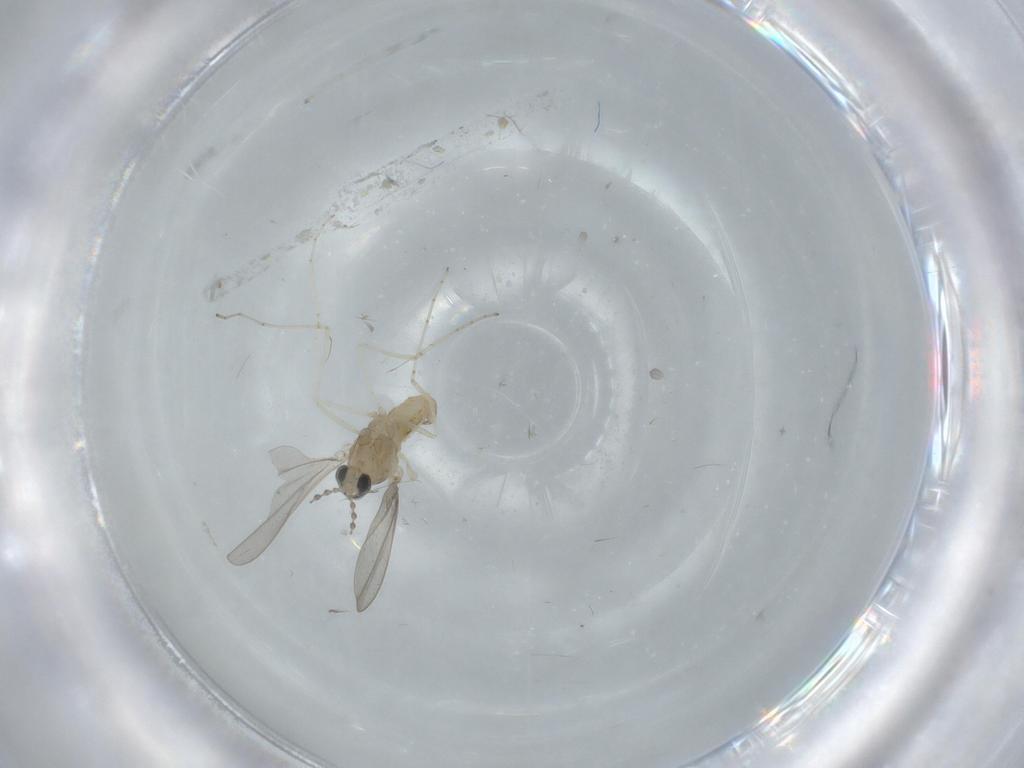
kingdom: Animalia
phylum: Arthropoda
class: Insecta
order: Diptera
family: Cecidomyiidae
